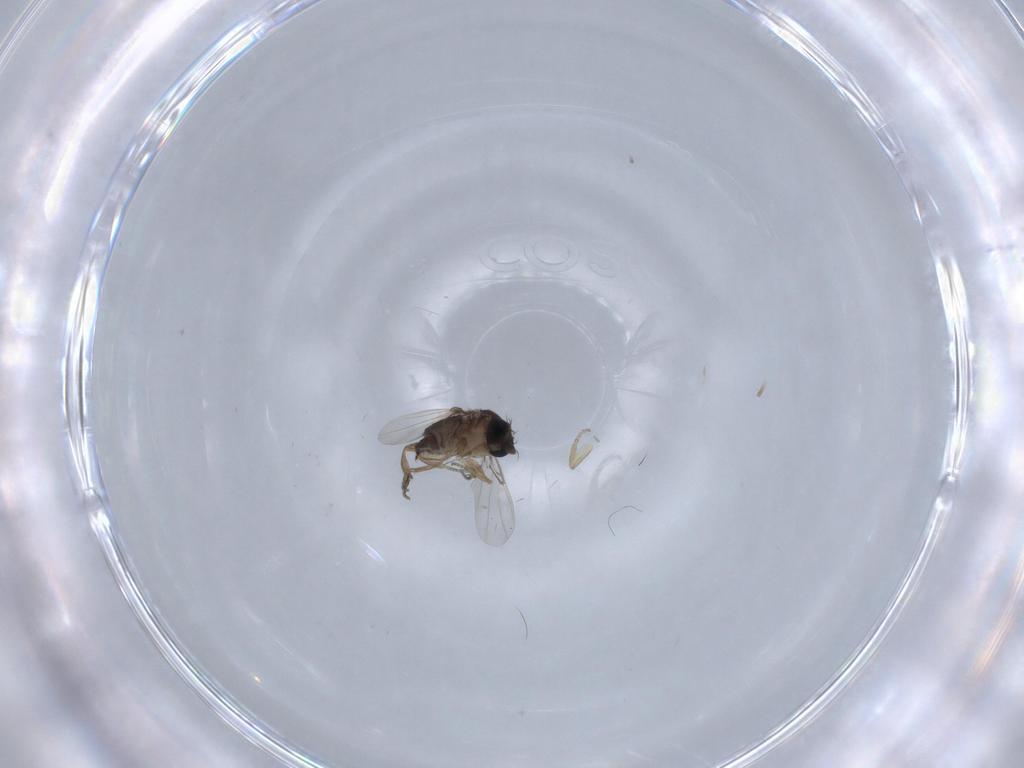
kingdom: Animalia
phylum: Arthropoda
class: Insecta
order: Diptera
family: Phoridae
